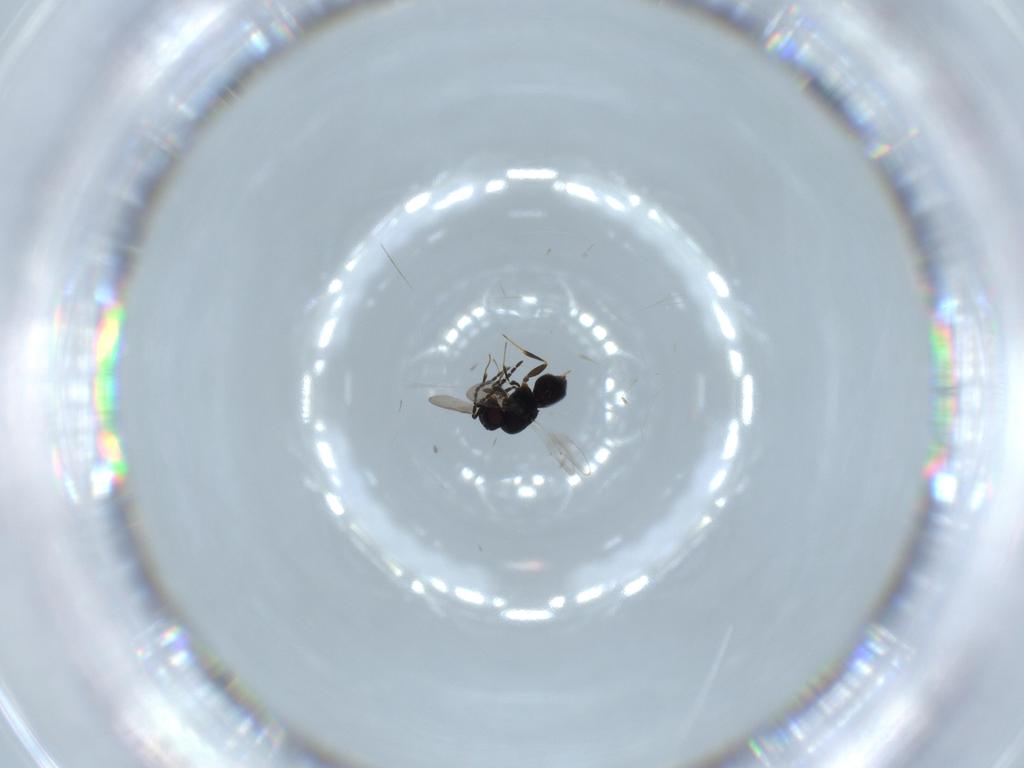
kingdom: Animalia
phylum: Arthropoda
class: Insecta
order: Hymenoptera
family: Ceraphronidae
